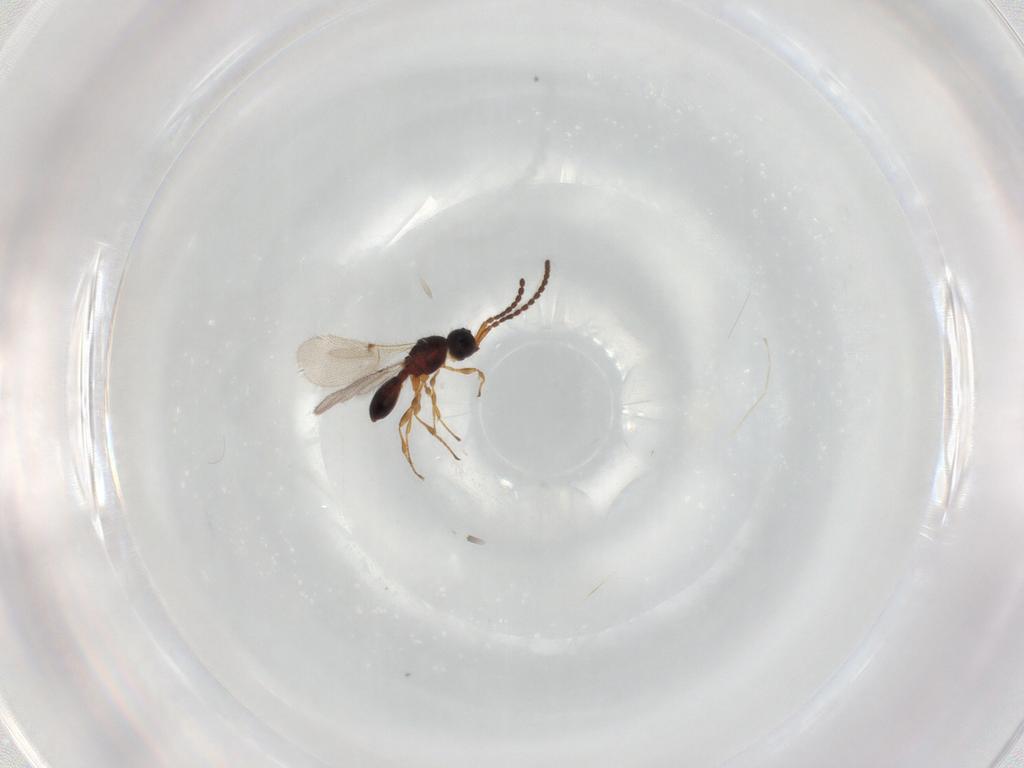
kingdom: Animalia
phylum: Arthropoda
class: Insecta
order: Hymenoptera
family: Diapriidae
